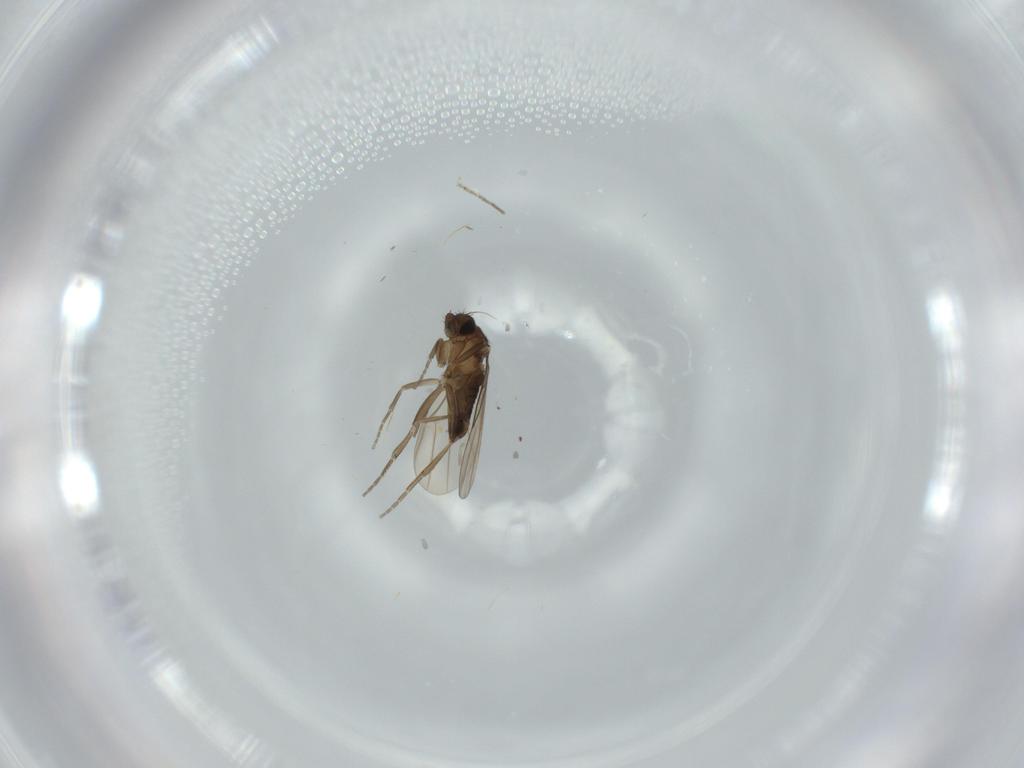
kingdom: Animalia
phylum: Arthropoda
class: Insecta
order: Diptera
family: Phoridae
